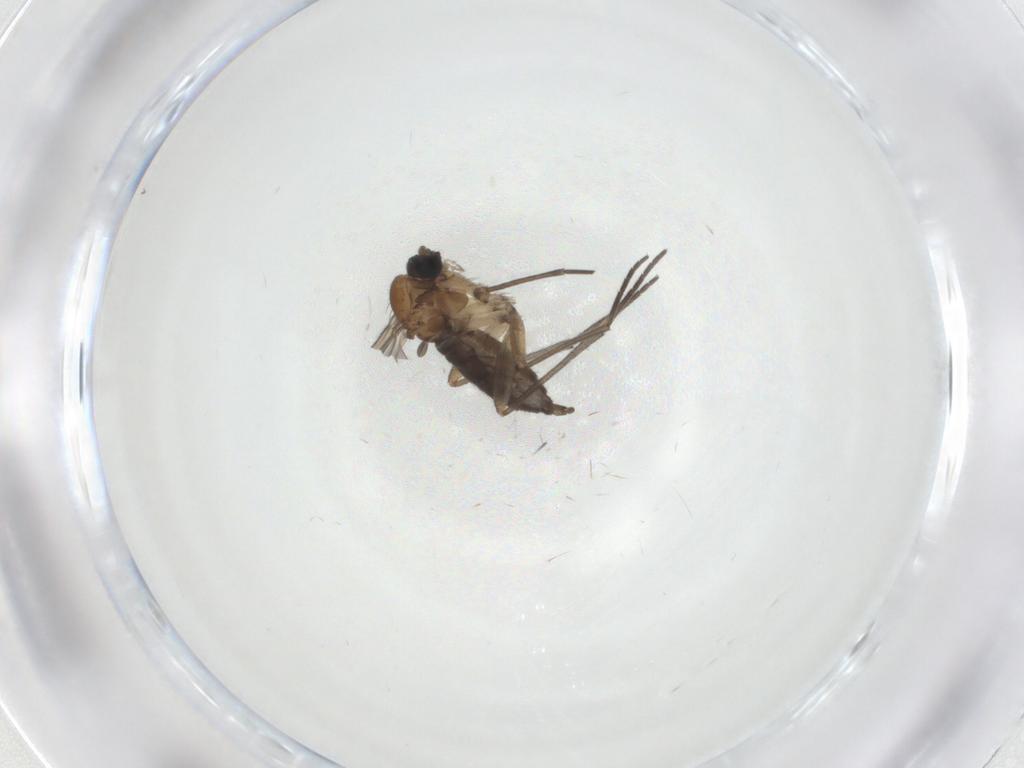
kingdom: Animalia
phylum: Arthropoda
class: Insecta
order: Diptera
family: Sciaridae
